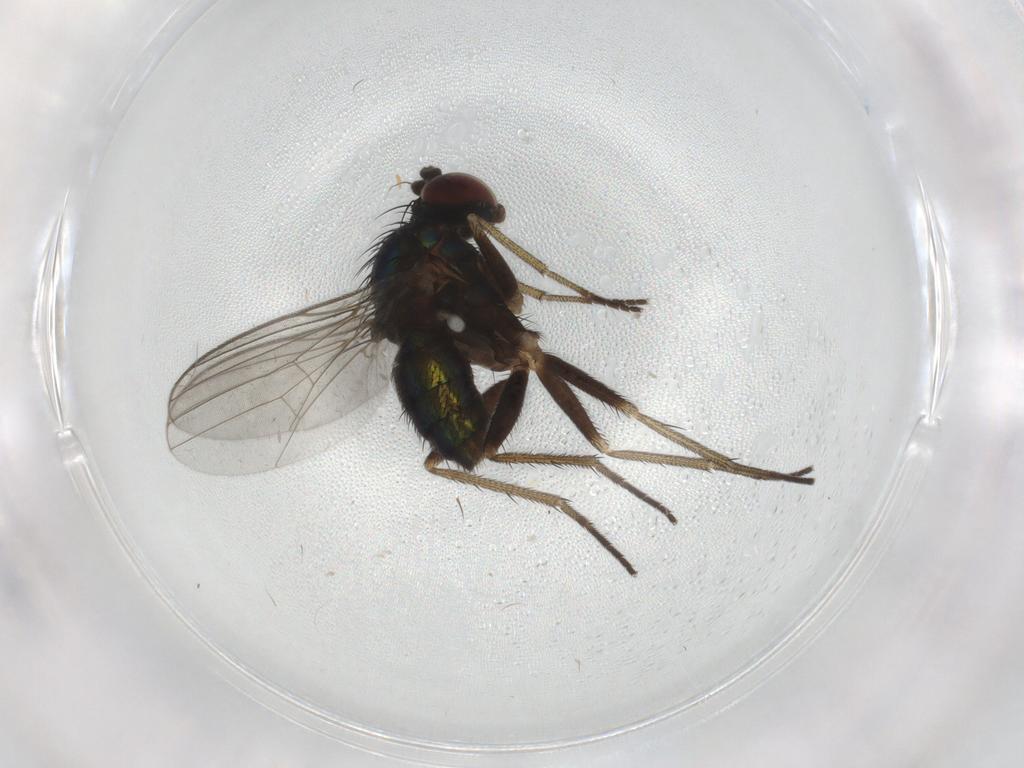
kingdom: Animalia
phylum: Arthropoda
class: Insecta
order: Diptera
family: Dolichopodidae
